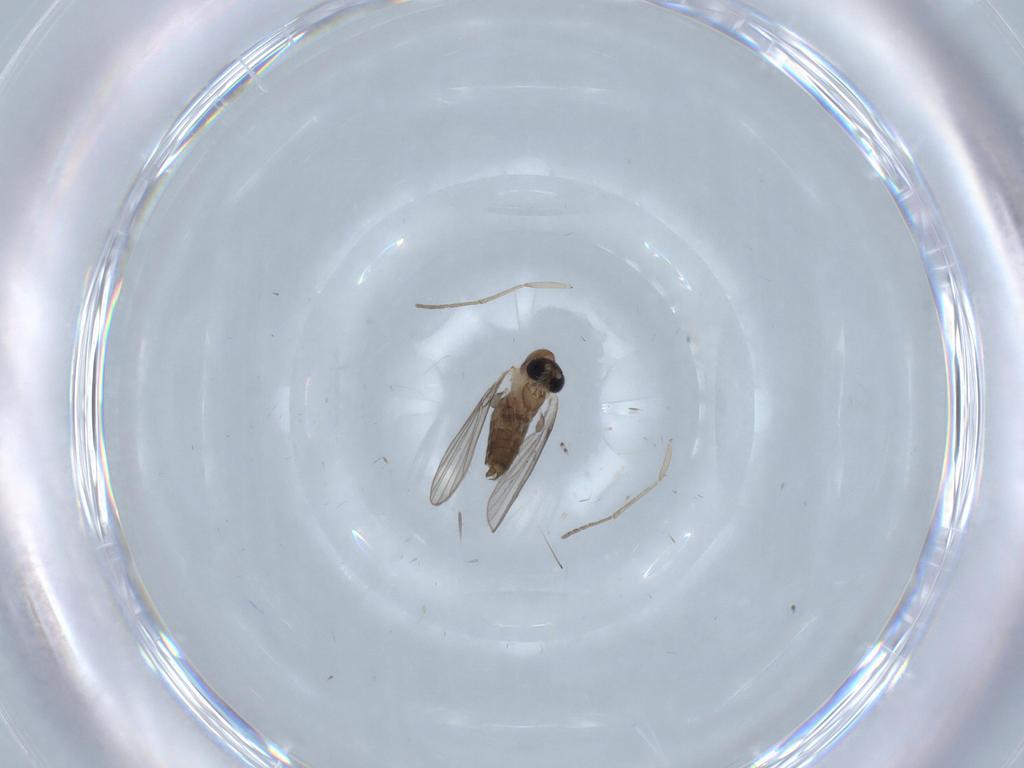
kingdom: Animalia
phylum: Arthropoda
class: Insecta
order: Diptera
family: Psychodidae
